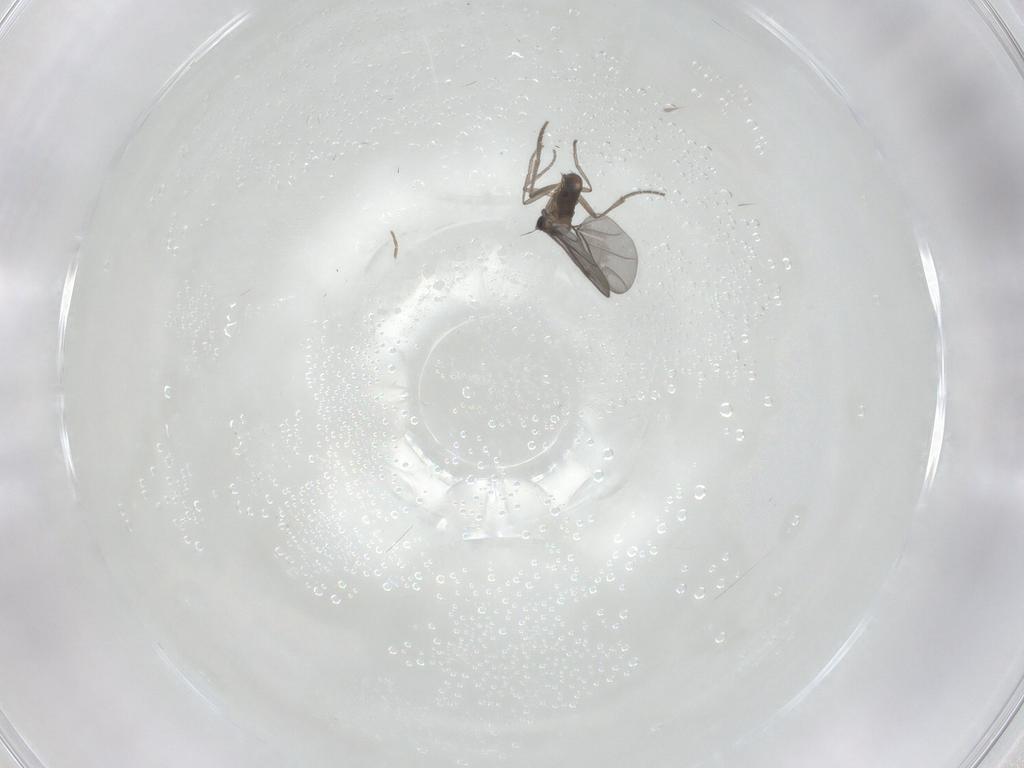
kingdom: Animalia
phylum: Arthropoda
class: Insecta
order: Diptera
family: Phoridae
